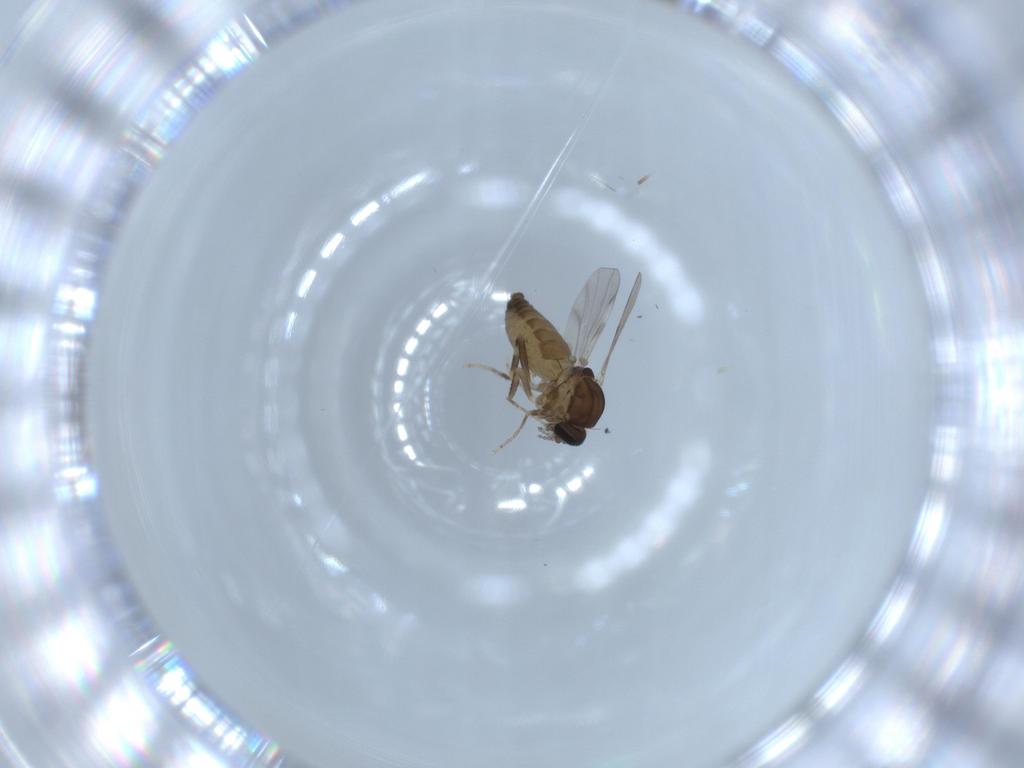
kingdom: Animalia
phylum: Arthropoda
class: Insecta
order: Diptera
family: Ceratopogonidae
